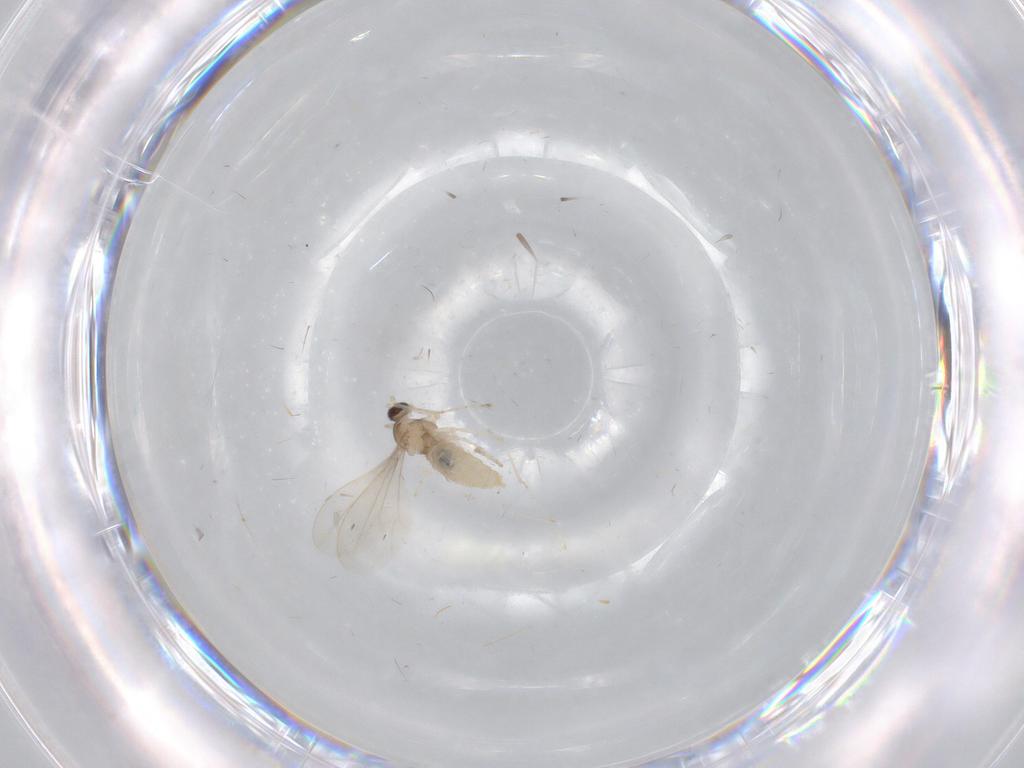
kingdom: Animalia
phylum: Arthropoda
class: Insecta
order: Diptera
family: Cecidomyiidae
